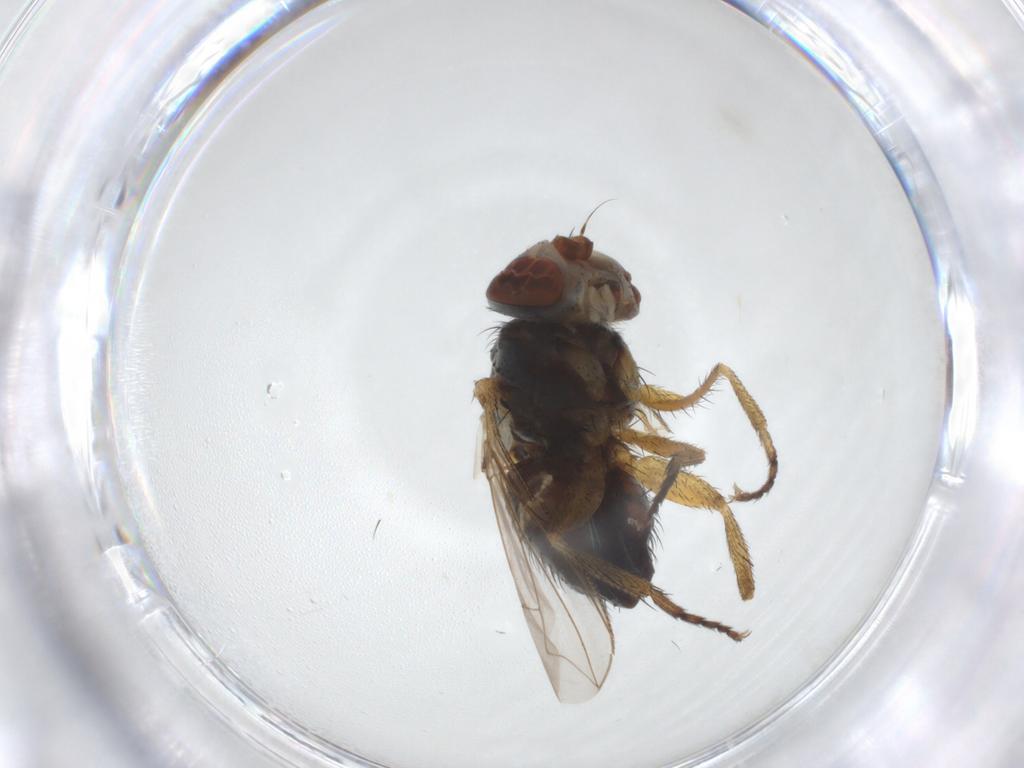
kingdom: Animalia
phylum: Arthropoda
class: Insecta
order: Diptera
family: Tachinidae
